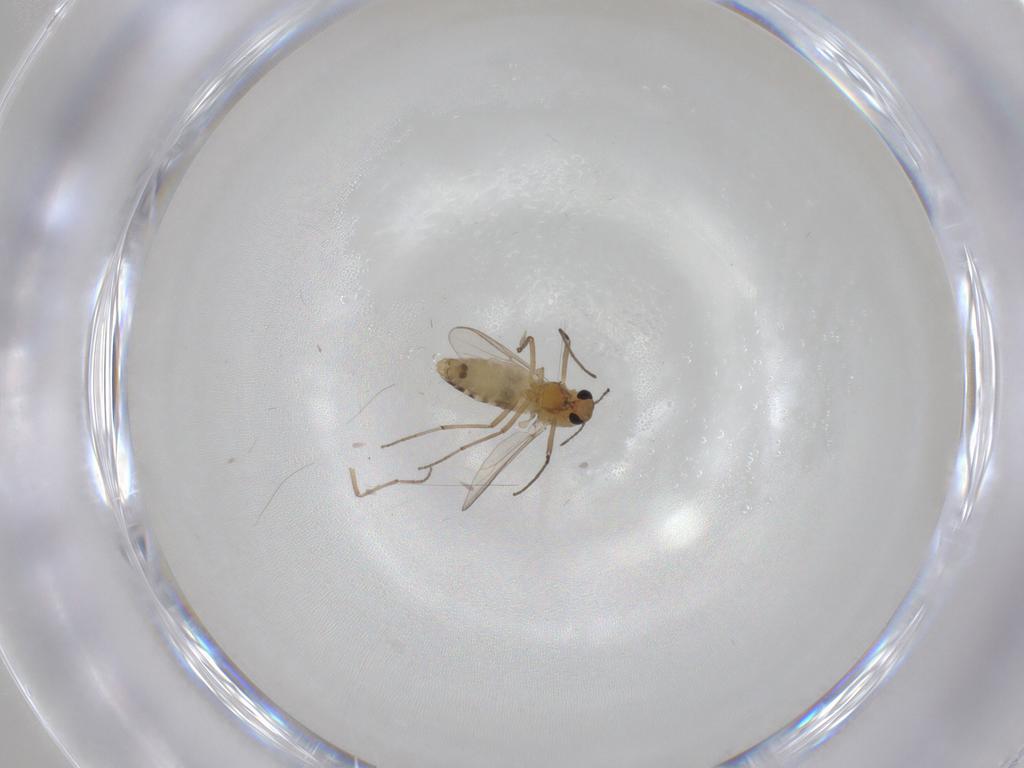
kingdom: Animalia
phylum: Arthropoda
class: Insecta
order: Diptera
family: Chironomidae
